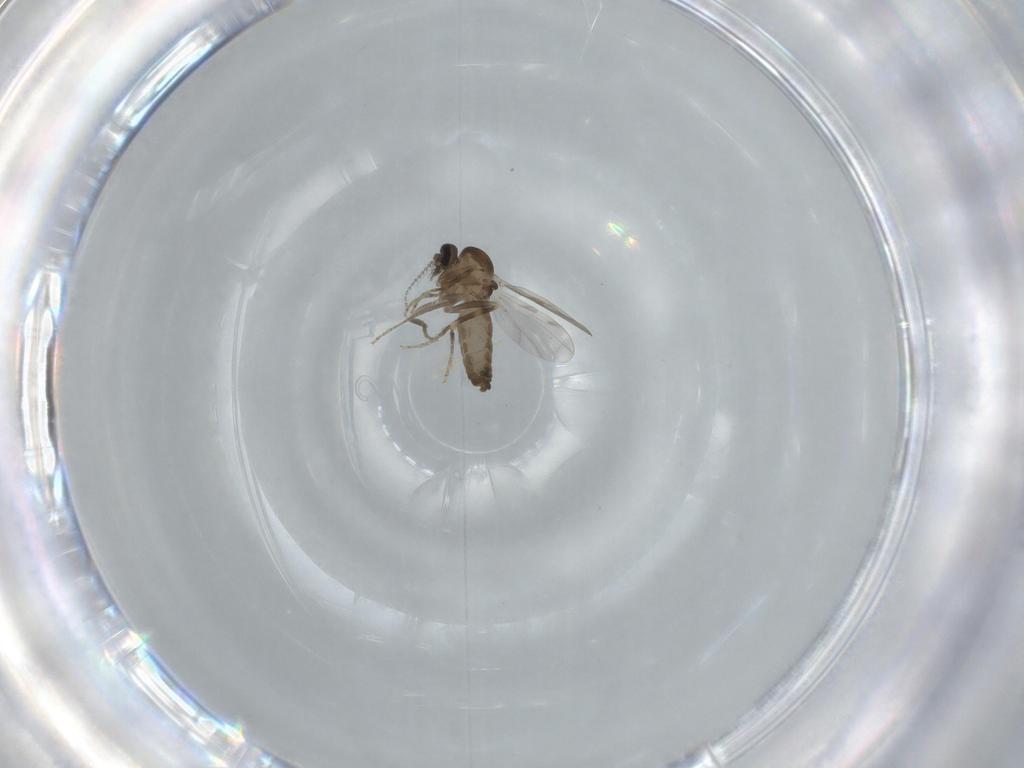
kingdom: Animalia
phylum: Arthropoda
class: Insecta
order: Diptera
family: Ceratopogonidae
